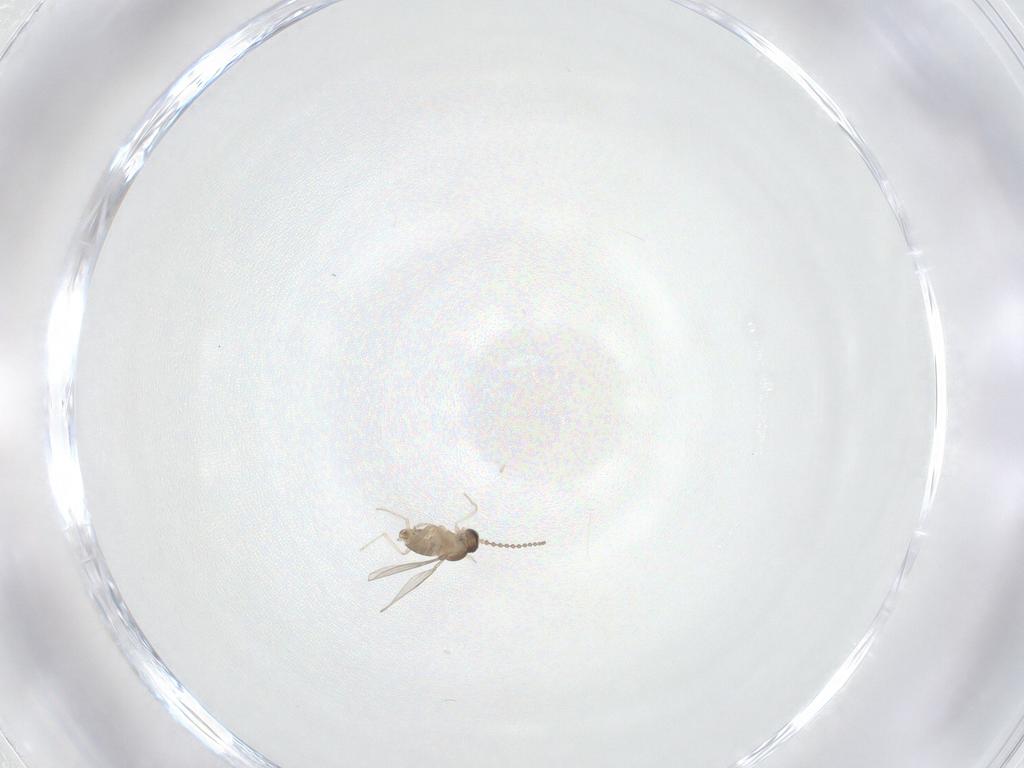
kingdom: Animalia
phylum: Arthropoda
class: Insecta
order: Diptera
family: Cecidomyiidae
